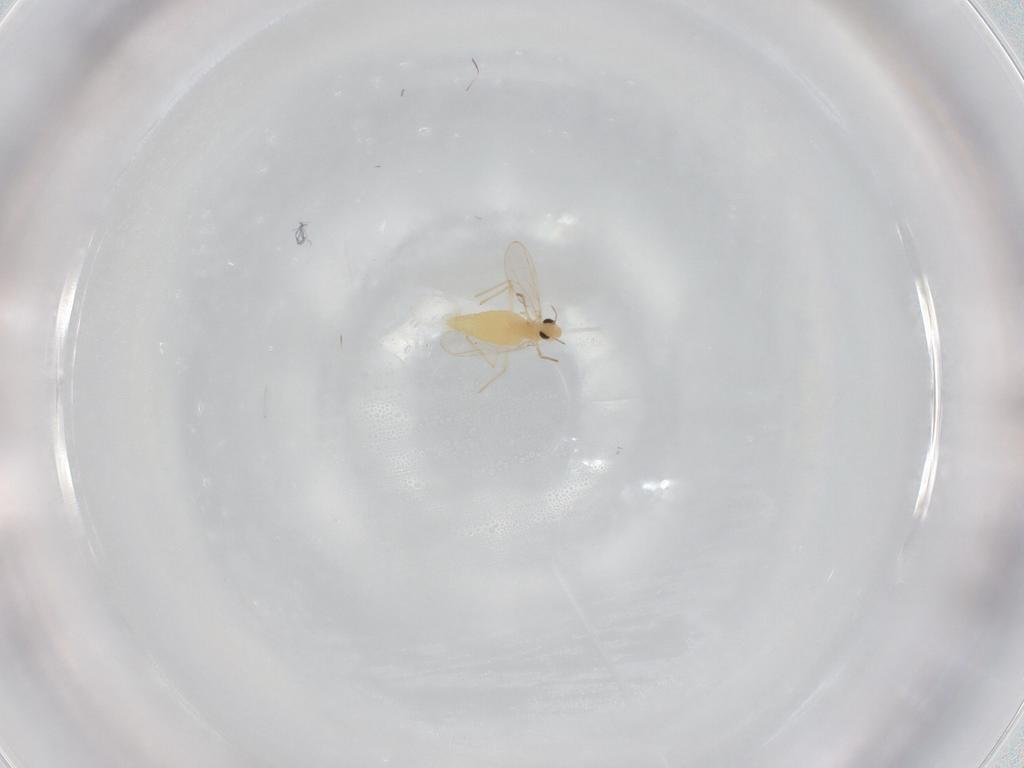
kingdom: Animalia
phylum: Arthropoda
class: Insecta
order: Diptera
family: Chironomidae
